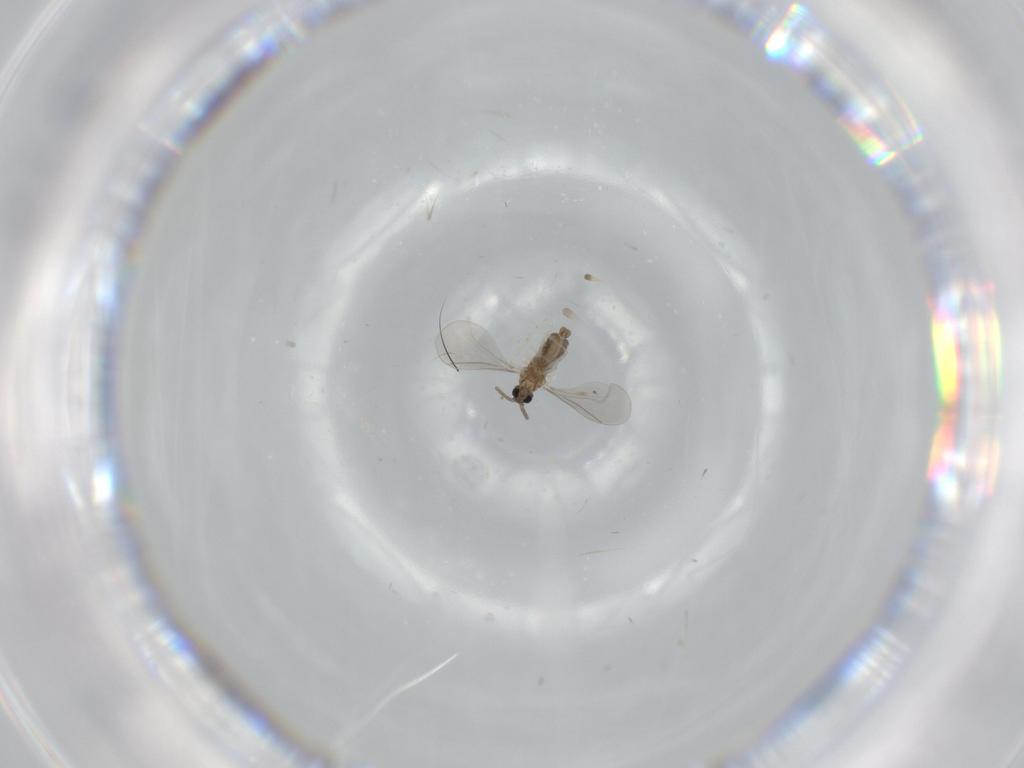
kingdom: Animalia
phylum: Arthropoda
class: Insecta
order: Diptera
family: Cecidomyiidae
